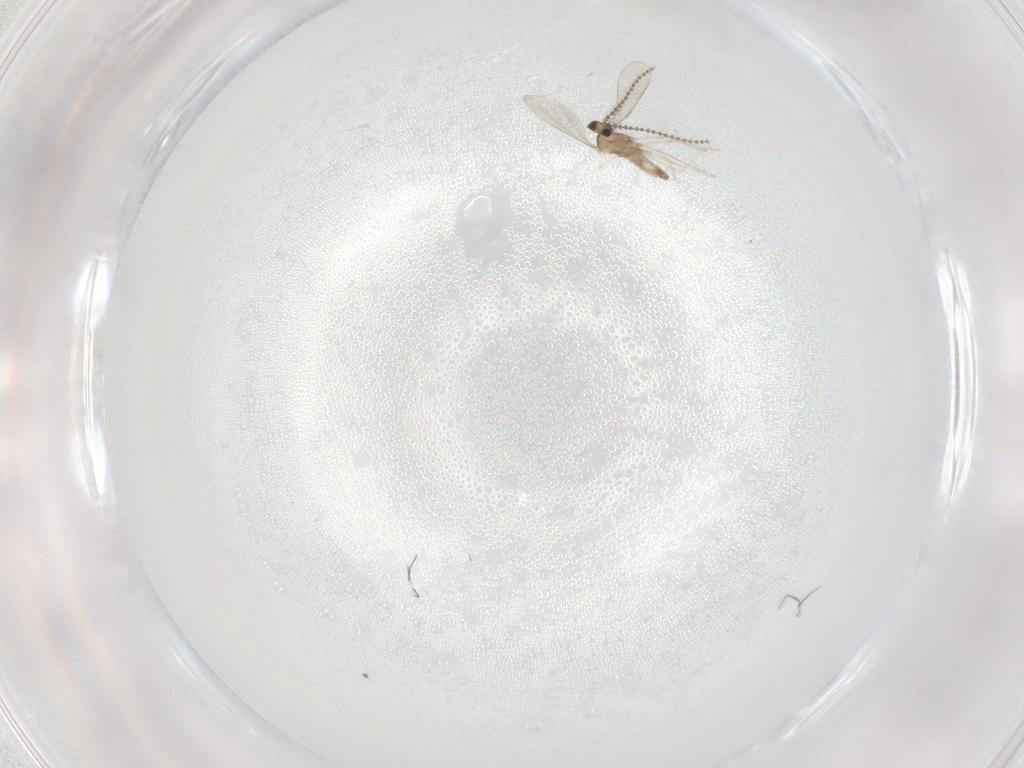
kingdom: Animalia
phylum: Arthropoda
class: Insecta
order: Diptera
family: Cecidomyiidae
